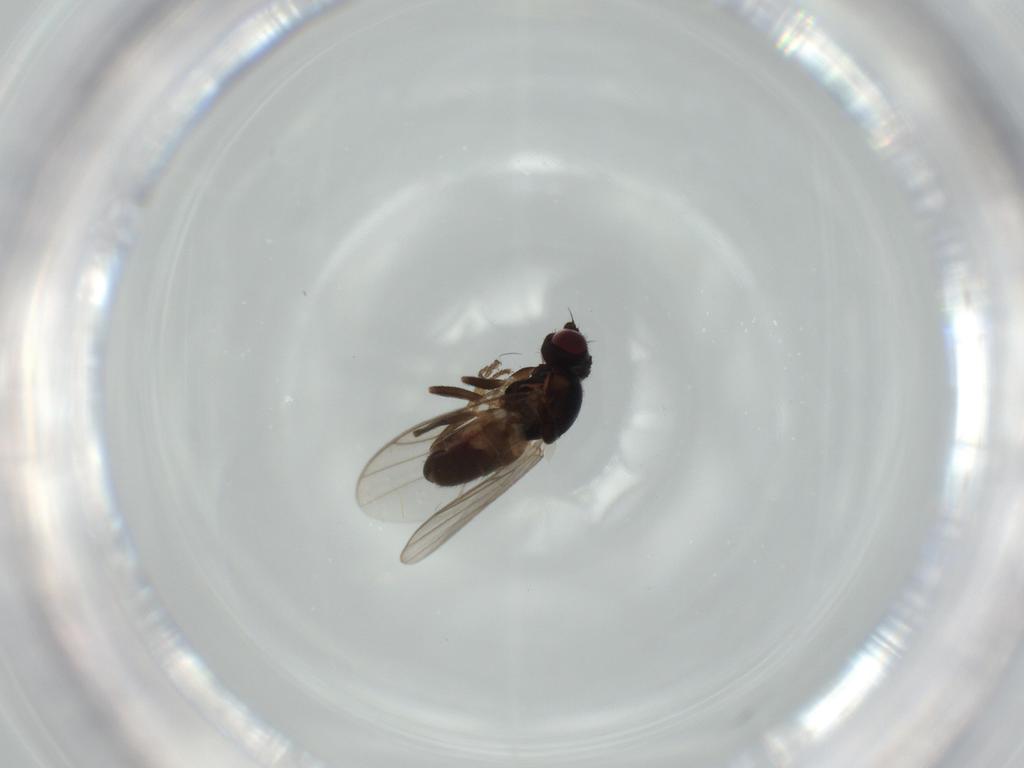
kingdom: Animalia
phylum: Arthropoda
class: Insecta
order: Diptera
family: Chloropidae
